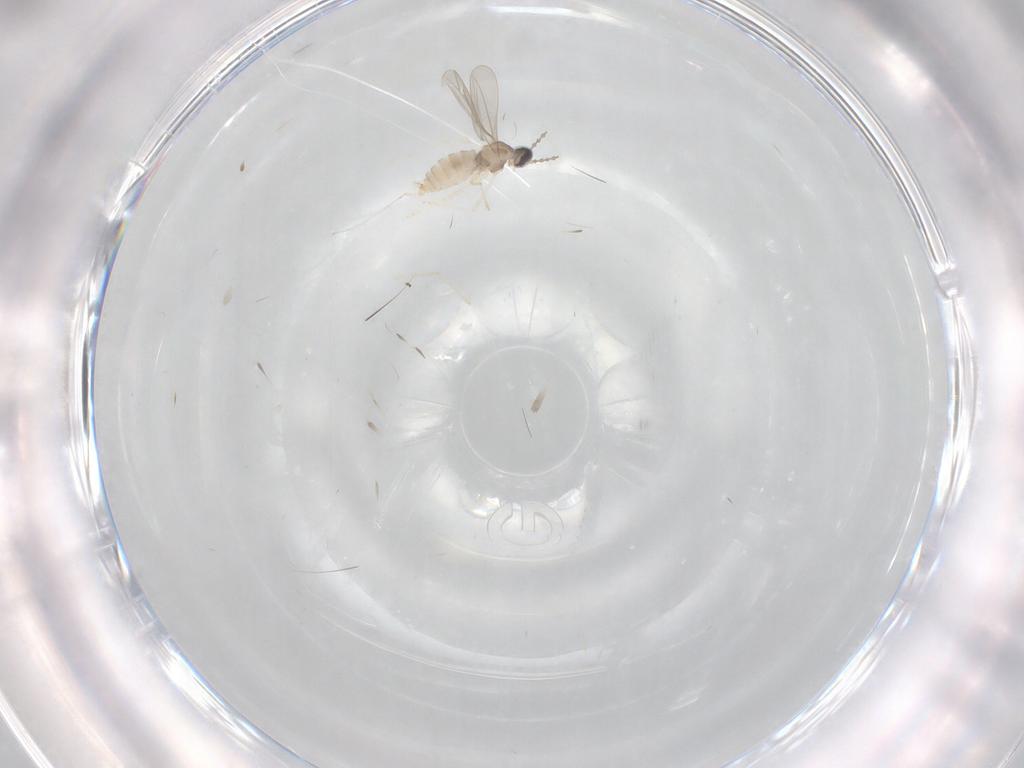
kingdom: Animalia
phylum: Arthropoda
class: Insecta
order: Diptera
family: Cecidomyiidae
